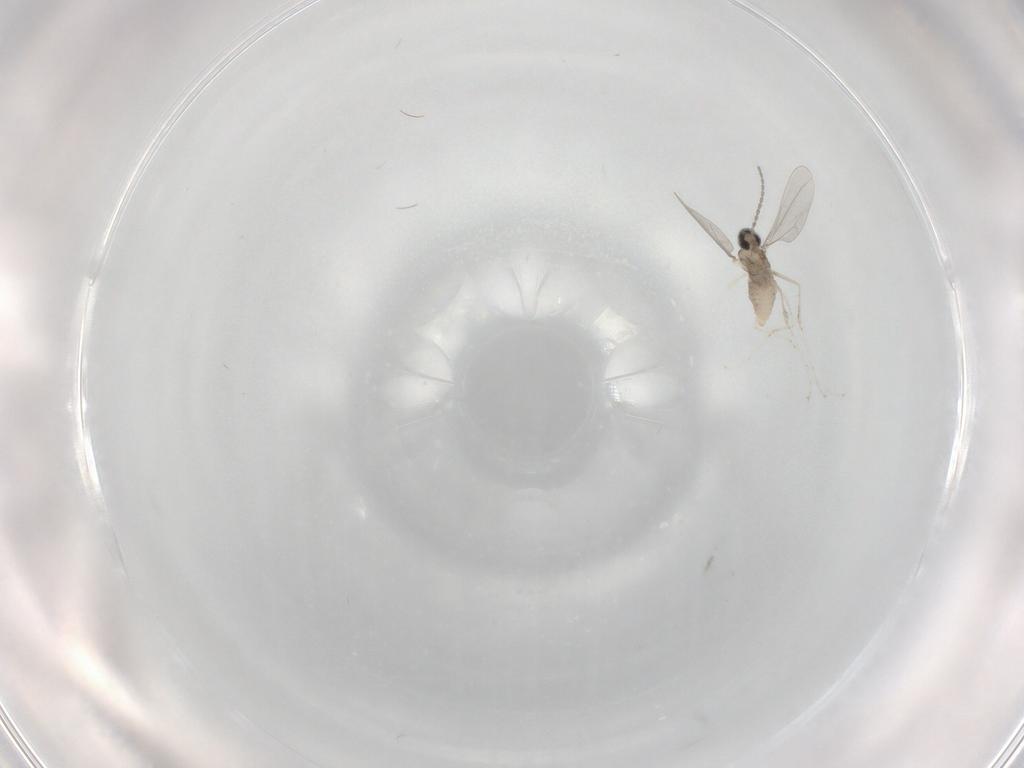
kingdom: Animalia
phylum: Arthropoda
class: Insecta
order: Diptera
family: Cecidomyiidae
